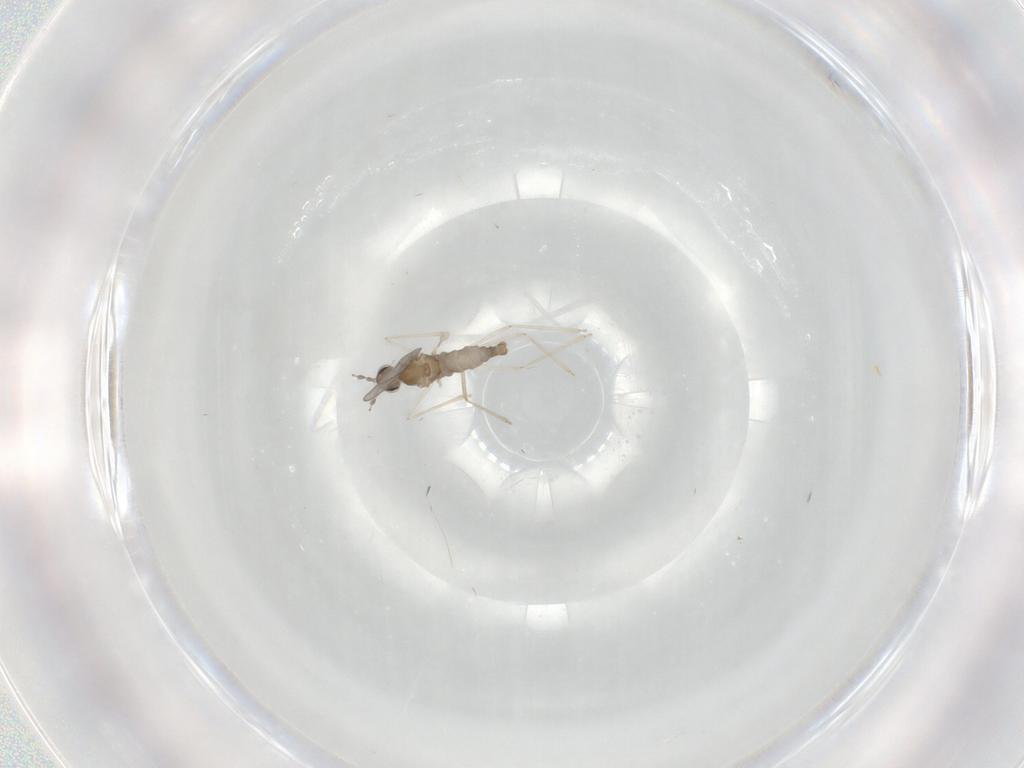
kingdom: Animalia
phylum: Arthropoda
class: Insecta
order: Diptera
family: Cecidomyiidae
